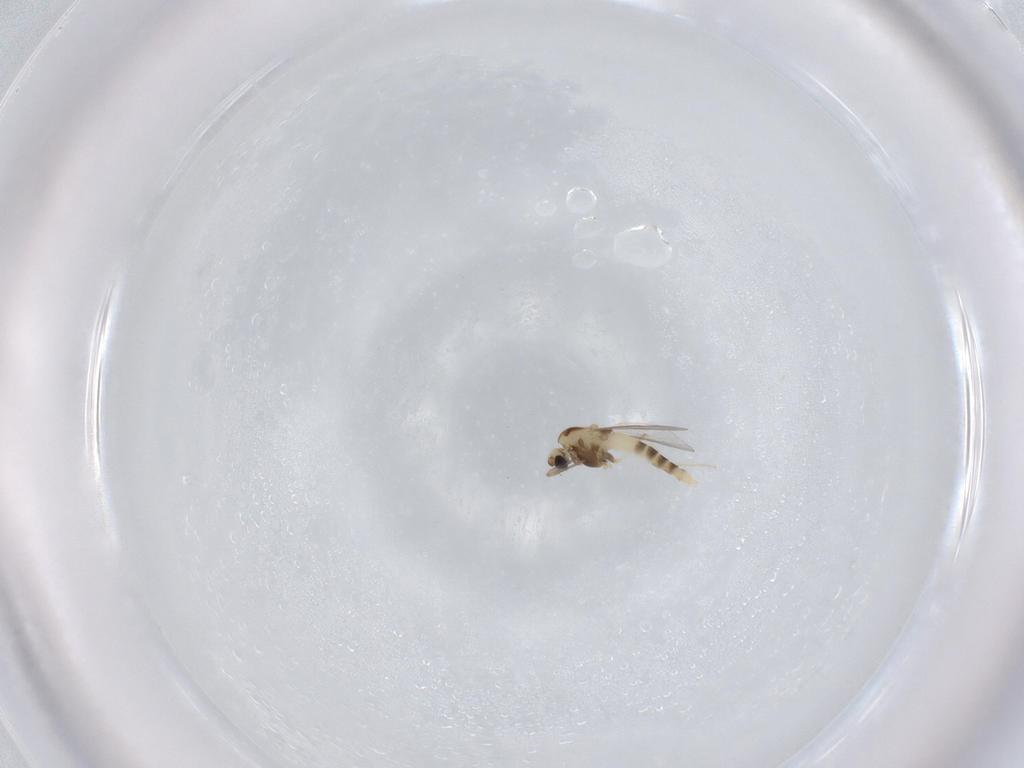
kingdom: Animalia
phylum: Arthropoda
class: Insecta
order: Diptera
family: Chironomidae
